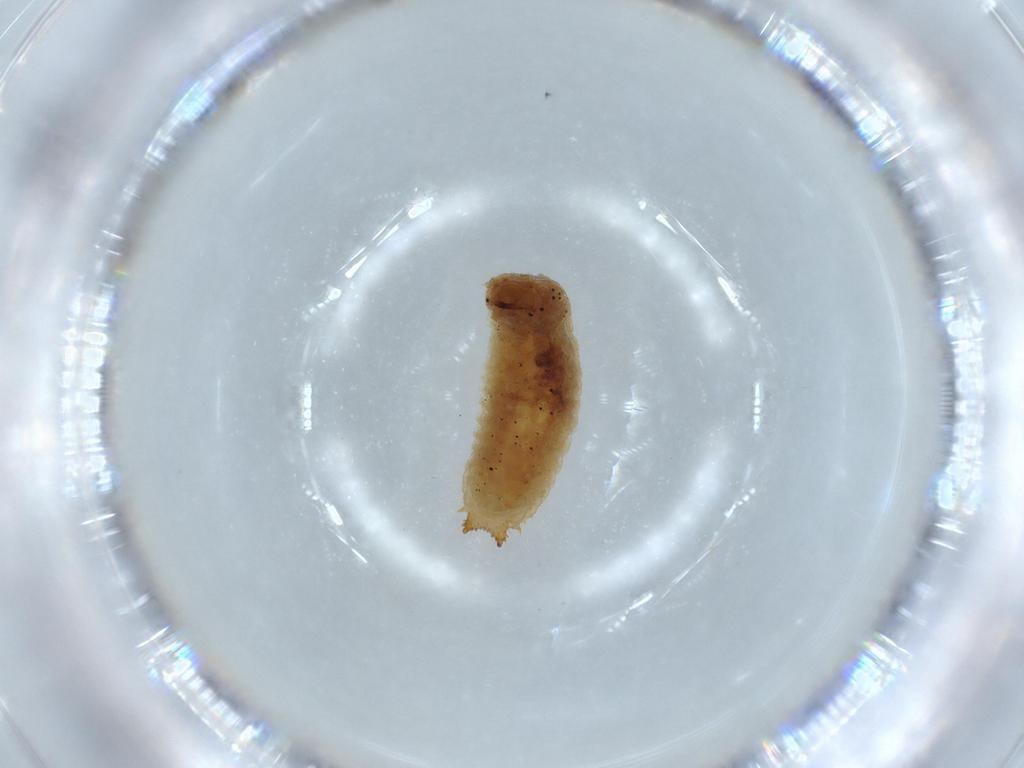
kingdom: Animalia
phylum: Arthropoda
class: Insecta
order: Coleoptera
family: Erotylidae
